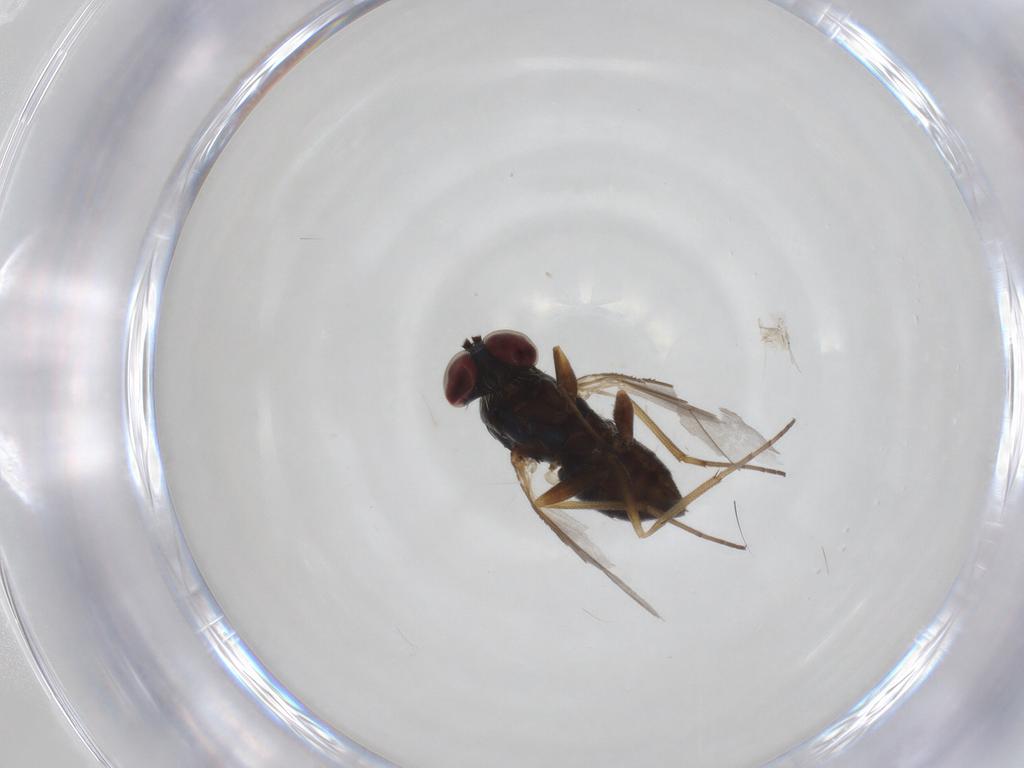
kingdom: Animalia
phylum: Arthropoda
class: Insecta
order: Diptera
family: Dolichopodidae
